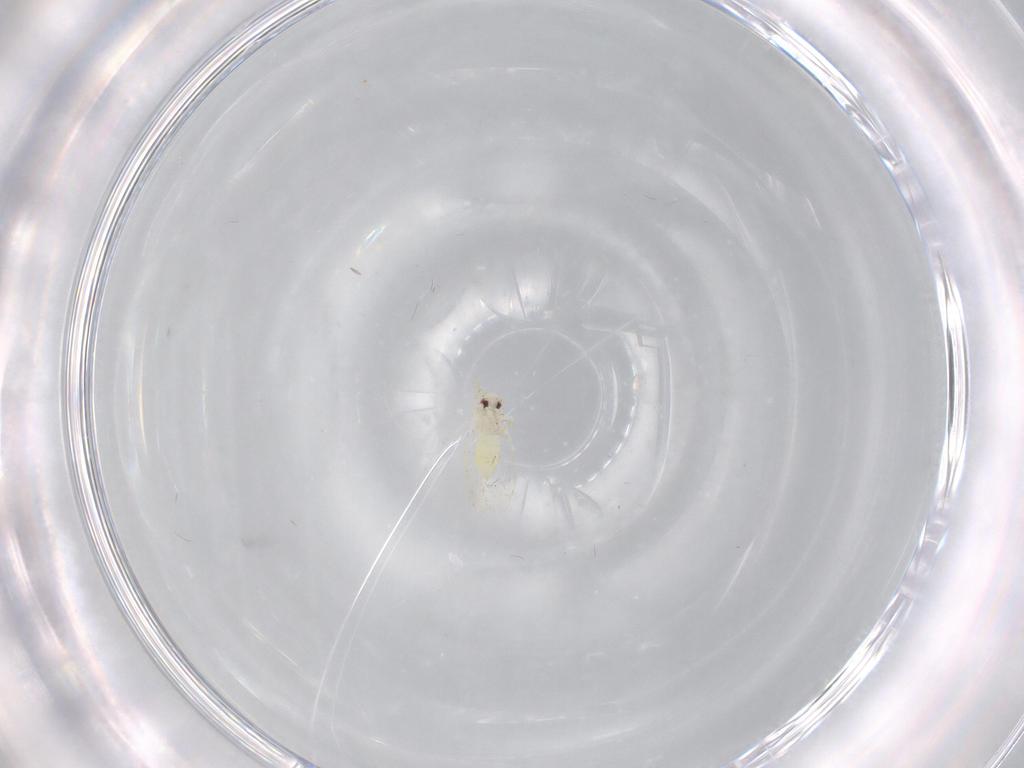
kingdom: Animalia
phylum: Arthropoda
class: Insecta
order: Hemiptera
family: Aleyrodidae
